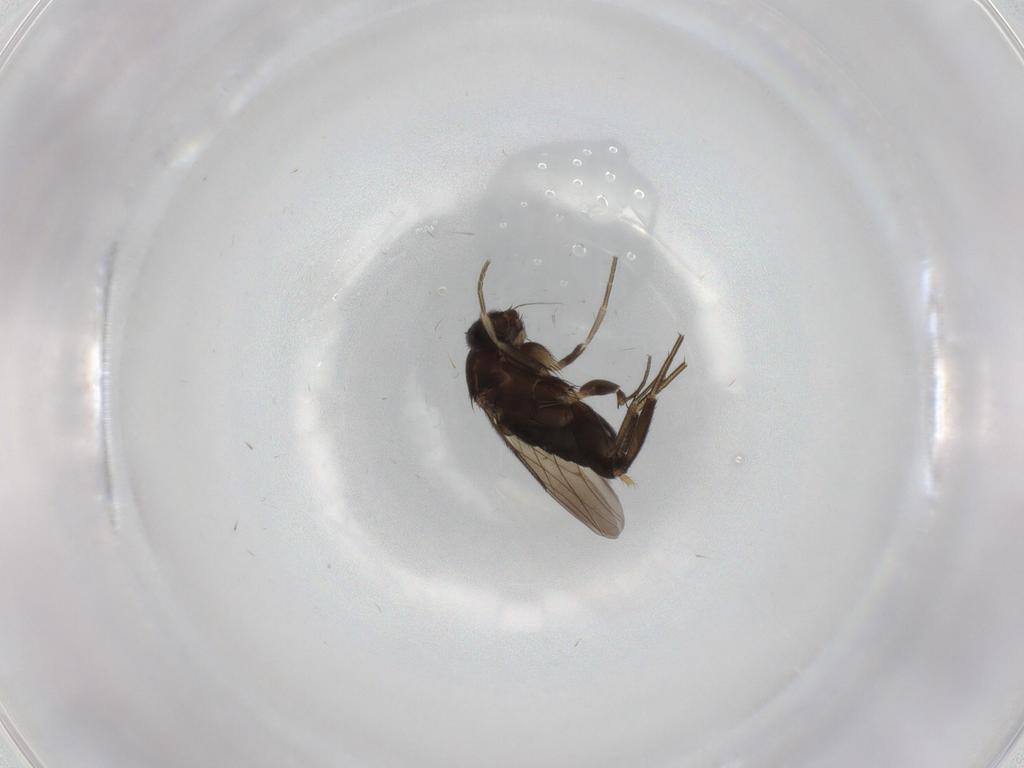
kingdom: Animalia
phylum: Arthropoda
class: Insecta
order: Diptera
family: Phoridae
